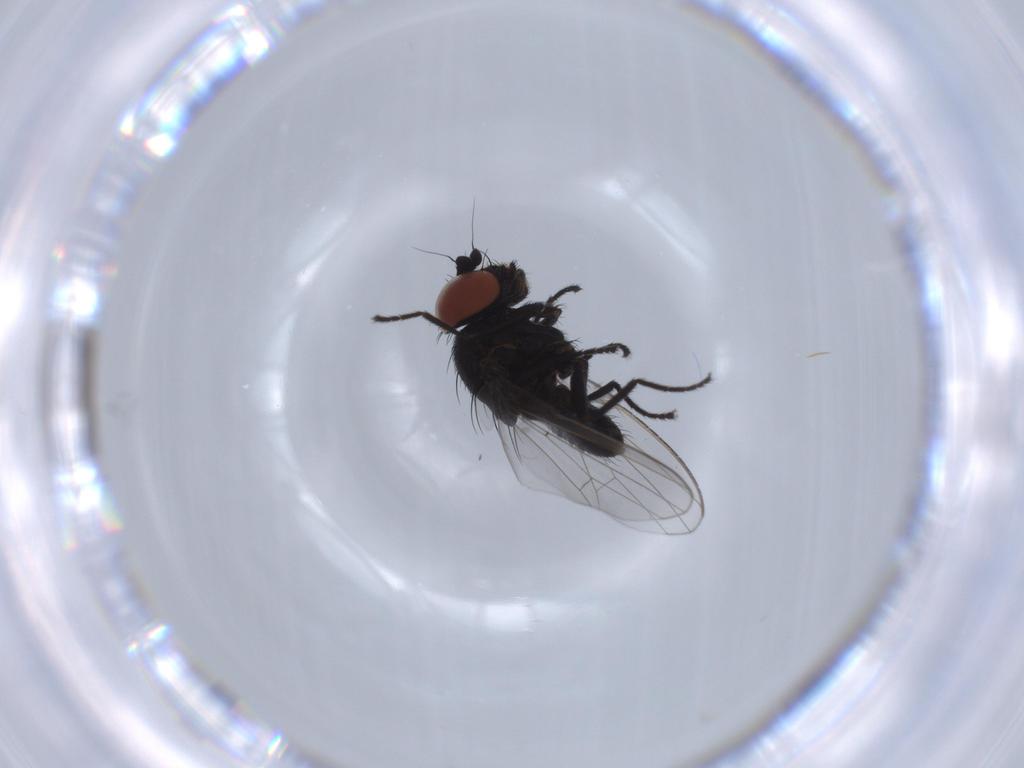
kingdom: Animalia
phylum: Arthropoda
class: Insecta
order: Diptera
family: Milichiidae
